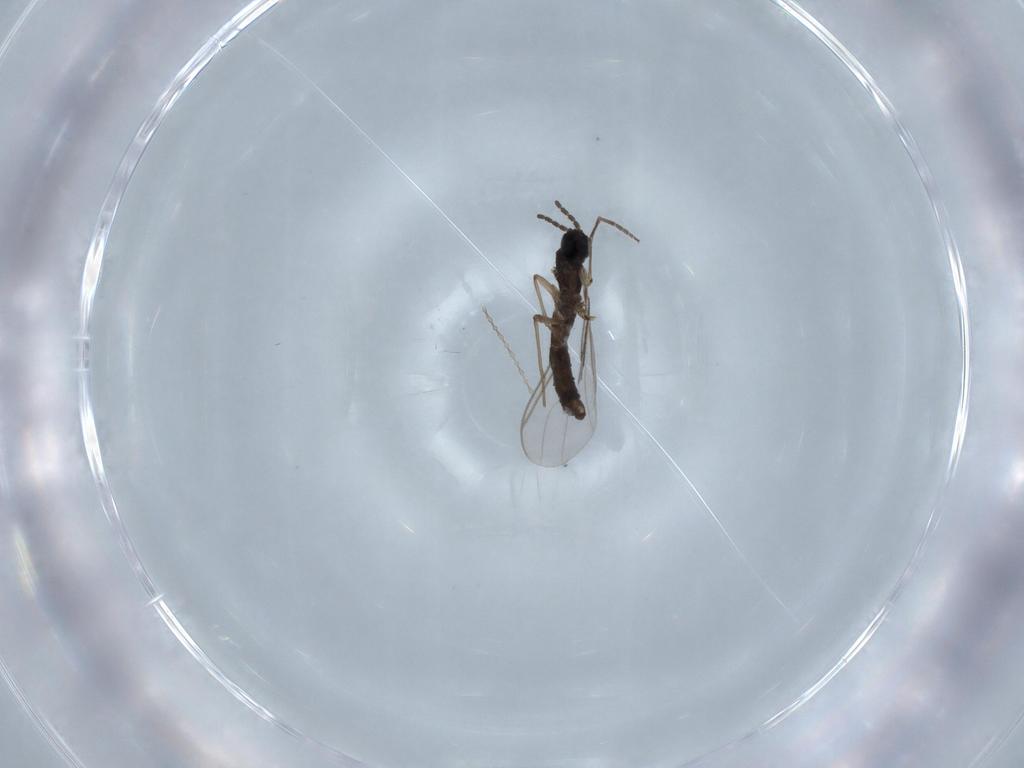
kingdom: Animalia
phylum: Arthropoda
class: Insecta
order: Diptera
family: Sciaridae
